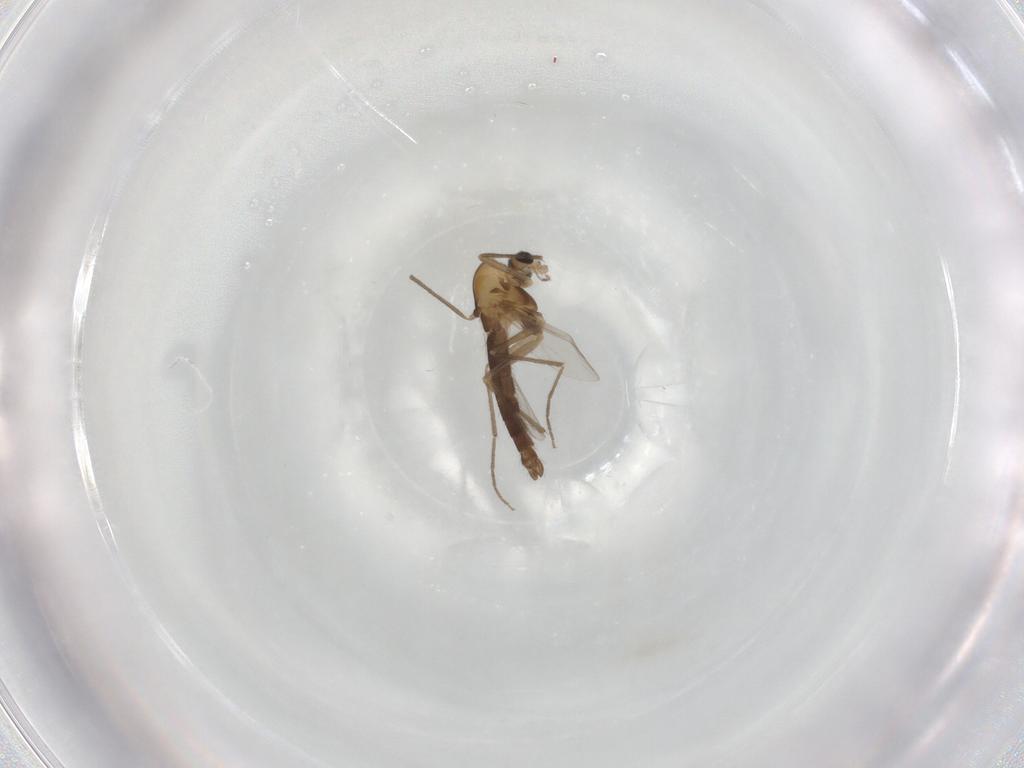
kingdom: Animalia
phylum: Arthropoda
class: Insecta
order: Diptera
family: Chironomidae
